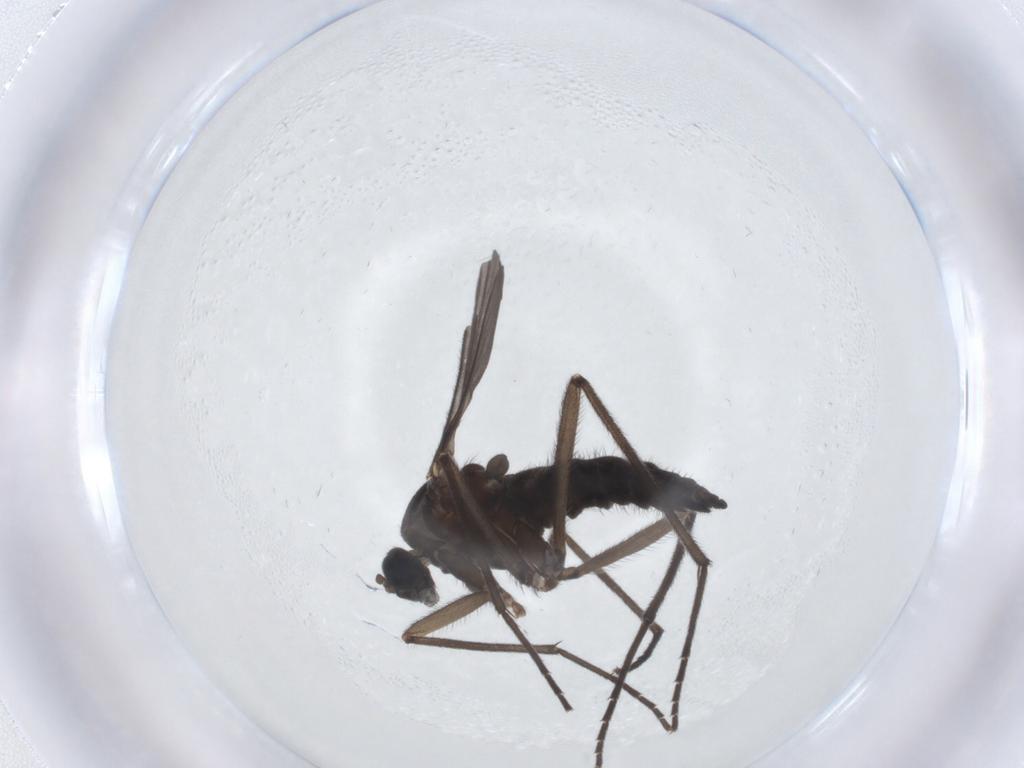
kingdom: Animalia
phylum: Arthropoda
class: Insecta
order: Diptera
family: Sciaridae
